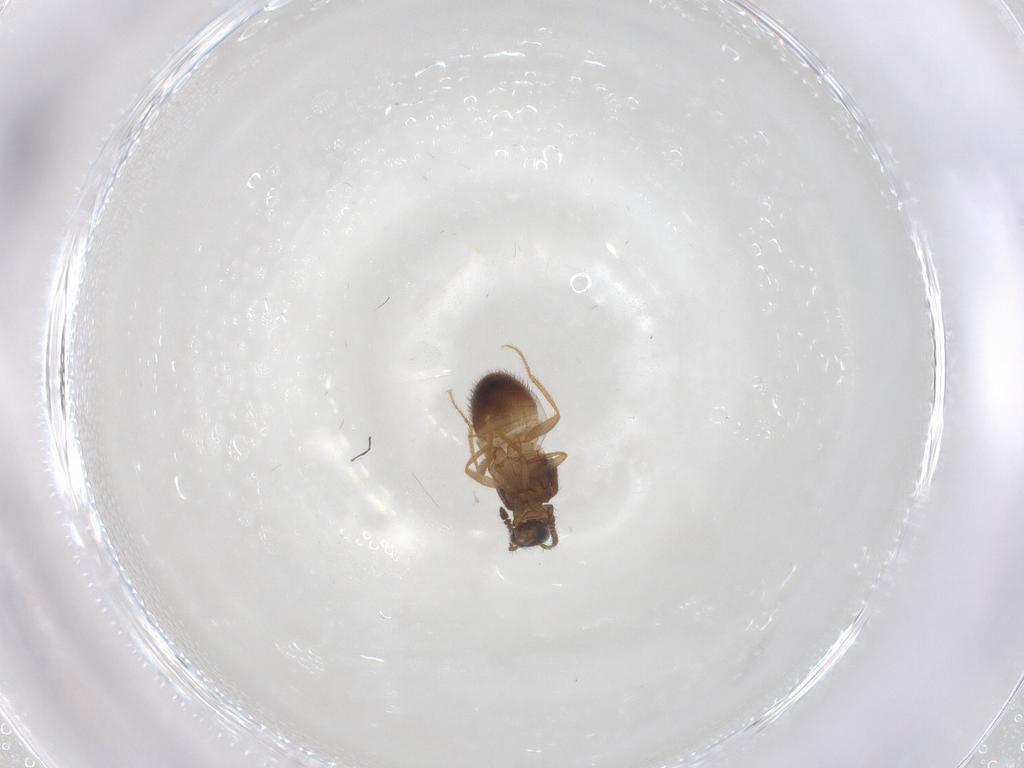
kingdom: Animalia
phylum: Arthropoda
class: Insecta
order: Coleoptera
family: Staphylinidae
